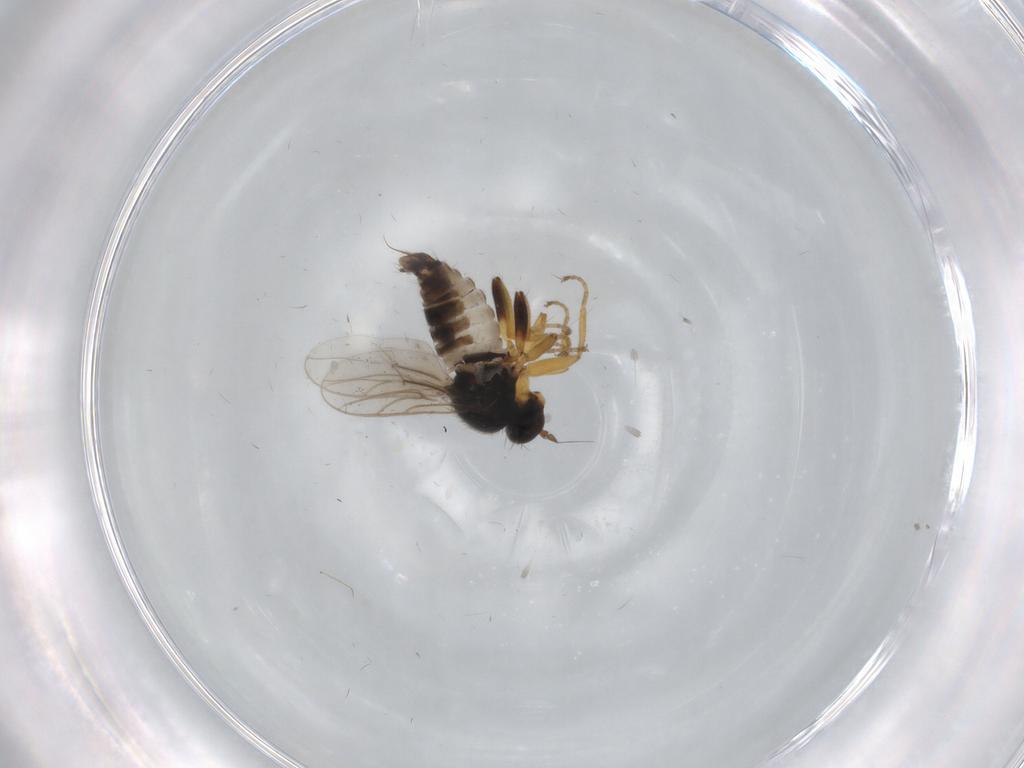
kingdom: Animalia
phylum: Arthropoda
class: Insecta
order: Diptera
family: Hybotidae
